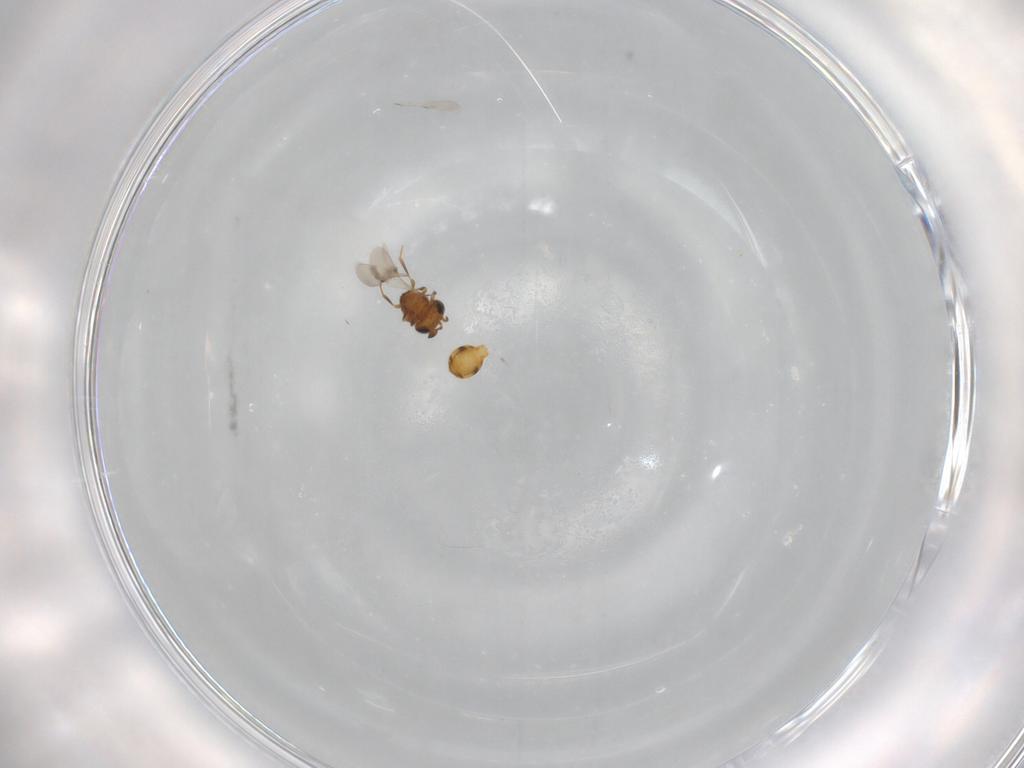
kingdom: Animalia
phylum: Arthropoda
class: Insecta
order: Hymenoptera
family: Scelionidae
